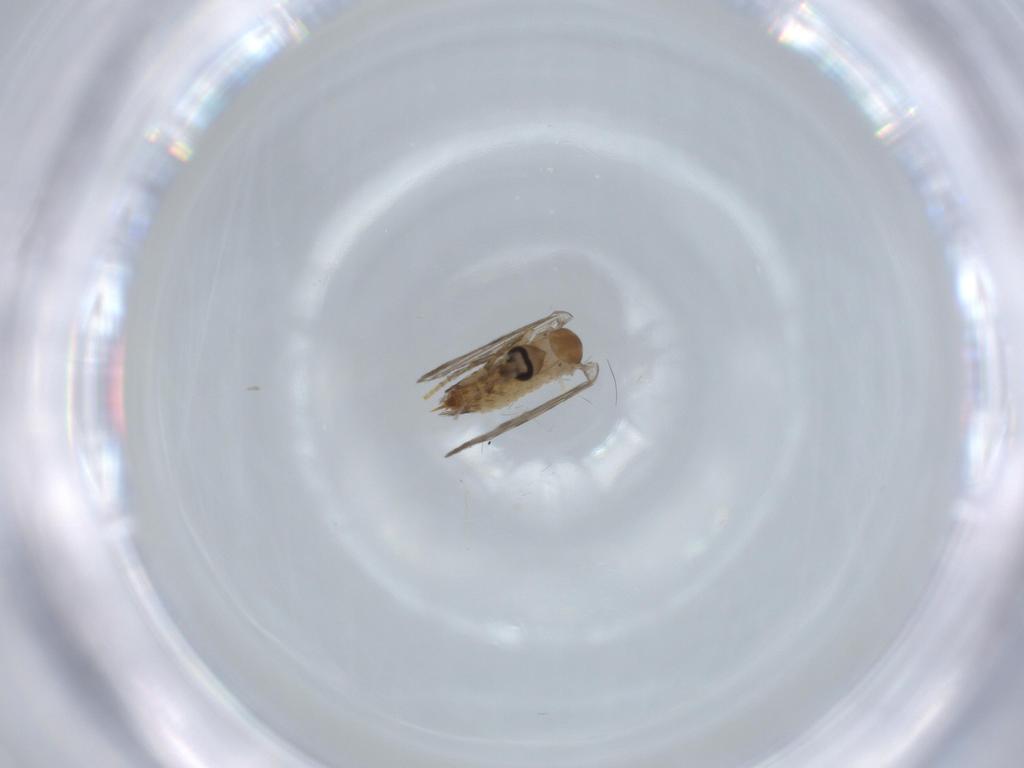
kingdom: Animalia
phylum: Arthropoda
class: Insecta
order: Diptera
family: Psychodidae
